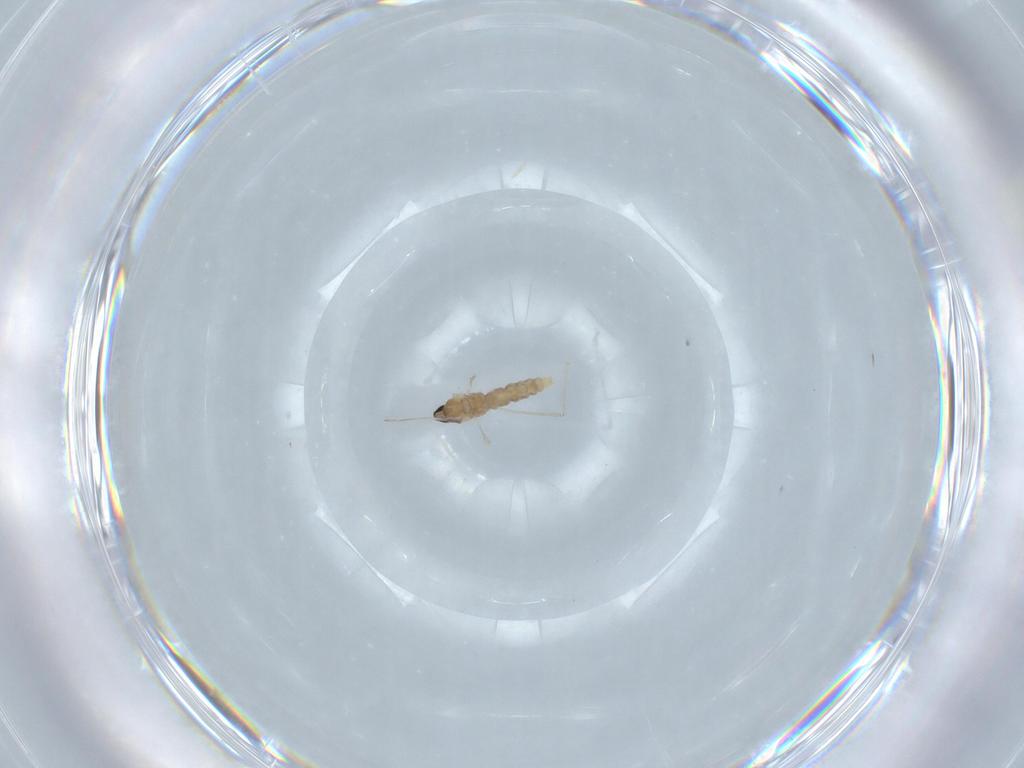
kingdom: Animalia
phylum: Arthropoda
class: Insecta
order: Diptera
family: Cecidomyiidae
